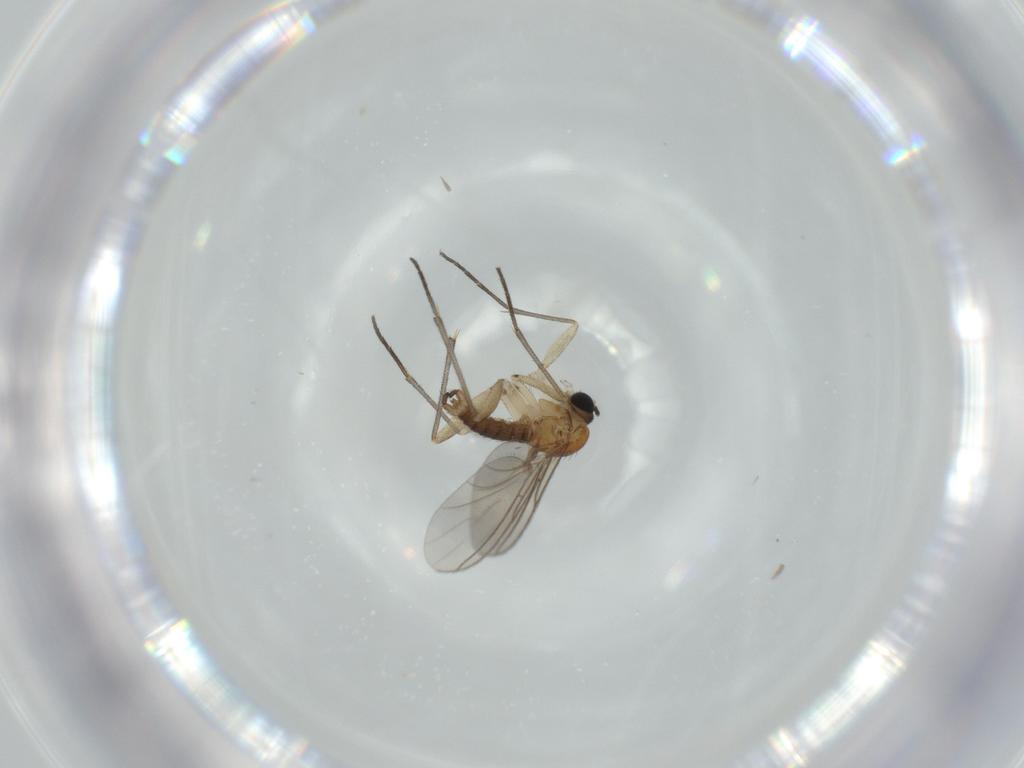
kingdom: Animalia
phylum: Arthropoda
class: Insecta
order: Diptera
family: Sciaridae
